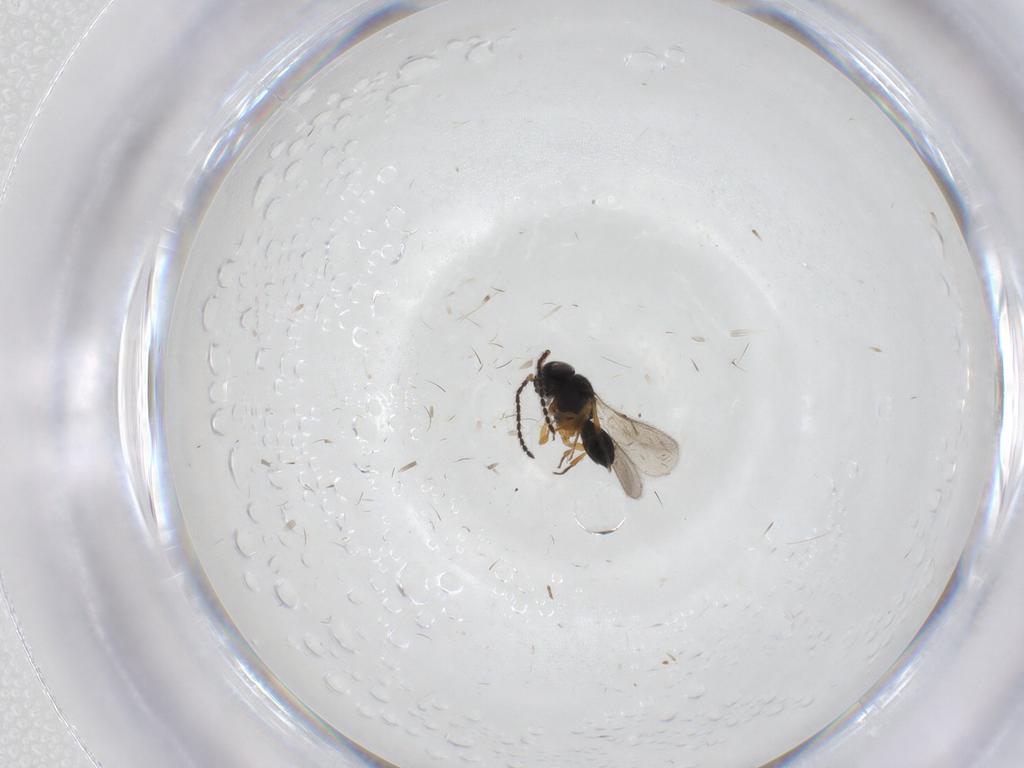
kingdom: Animalia
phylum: Arthropoda
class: Insecta
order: Hymenoptera
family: Scelionidae
